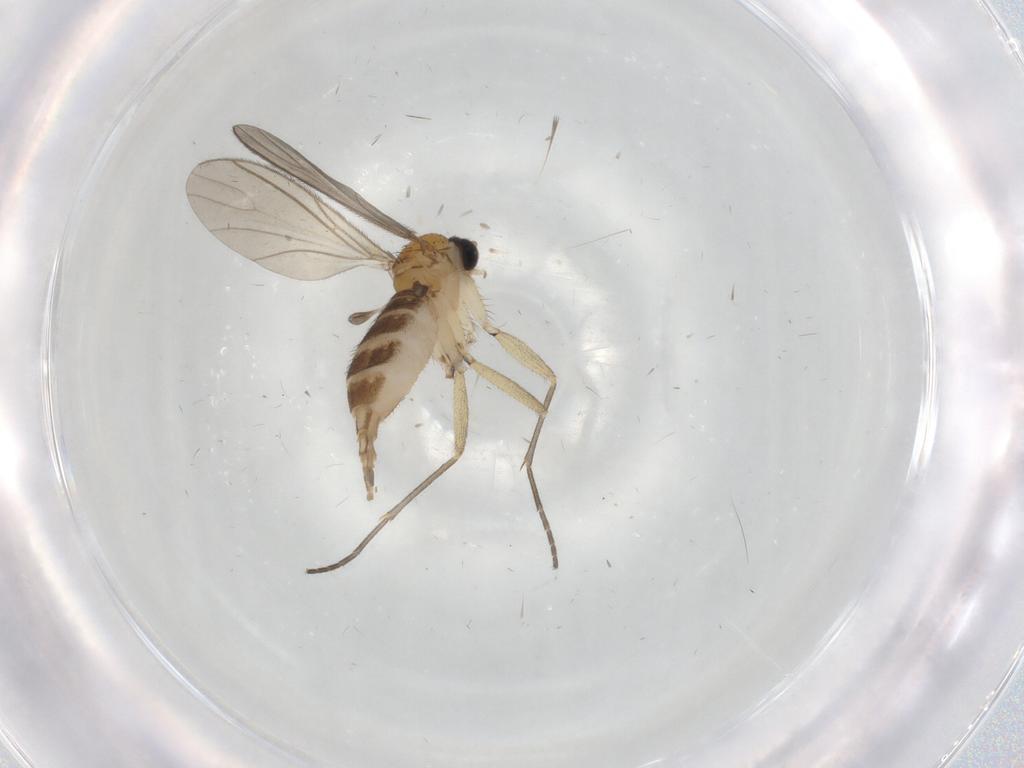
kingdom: Animalia
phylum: Arthropoda
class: Insecta
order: Diptera
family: Sciaridae
